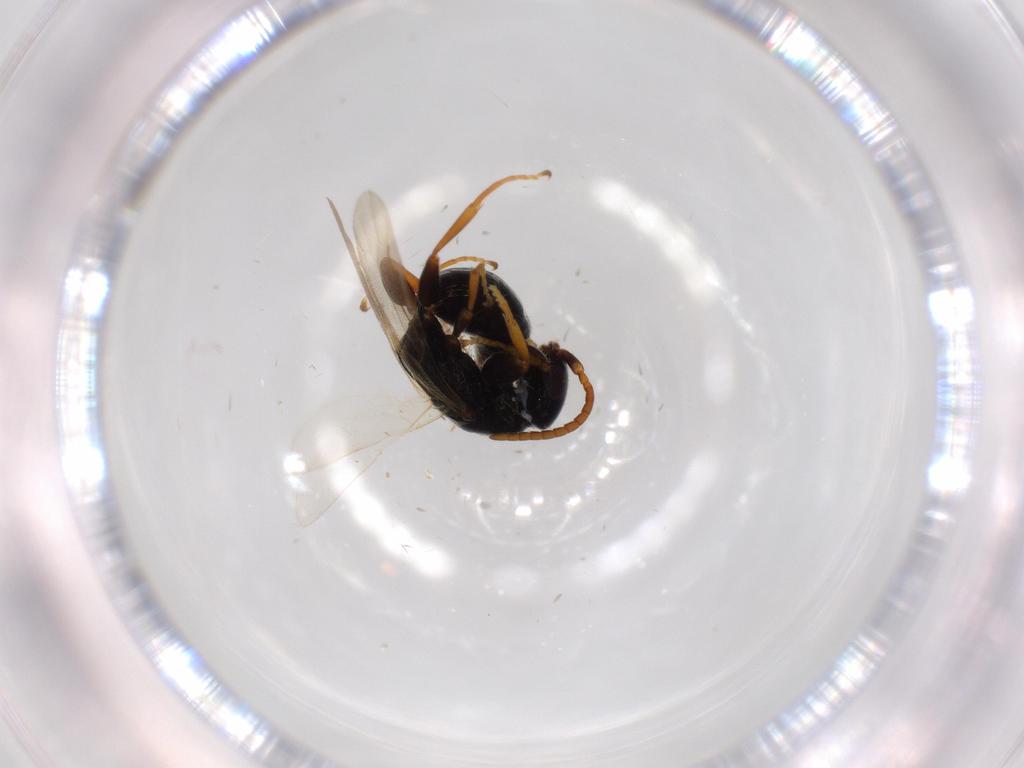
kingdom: Animalia
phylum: Arthropoda
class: Insecta
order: Hymenoptera
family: Bethylidae
